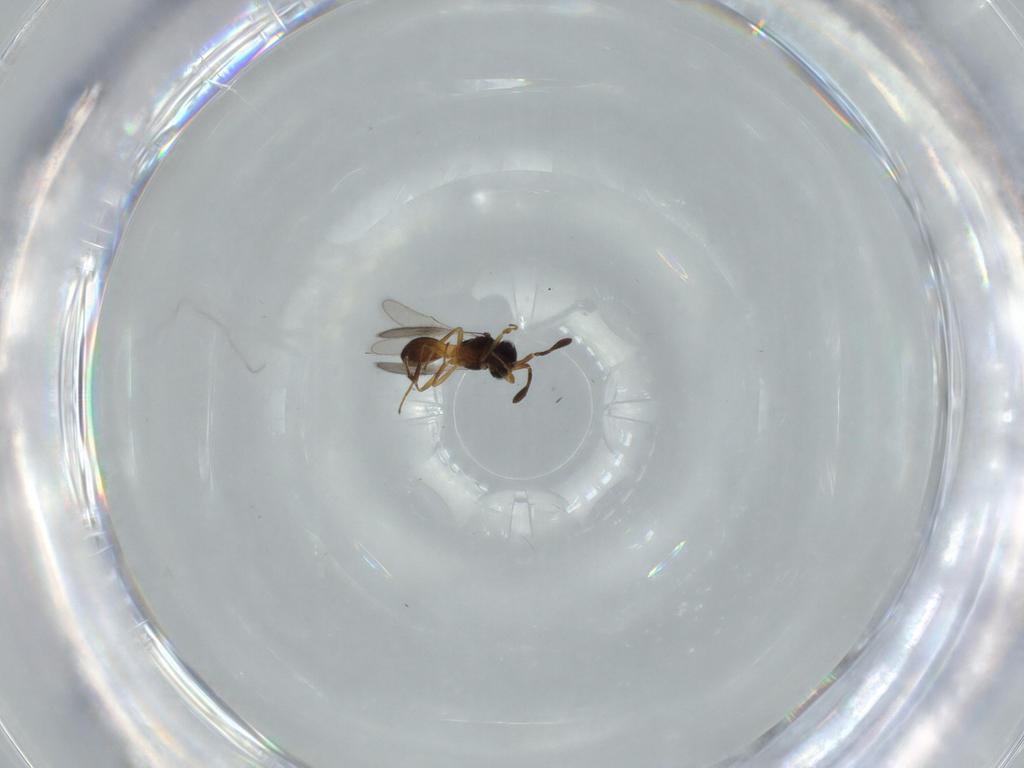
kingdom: Animalia
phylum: Arthropoda
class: Insecta
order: Hymenoptera
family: Scelionidae
